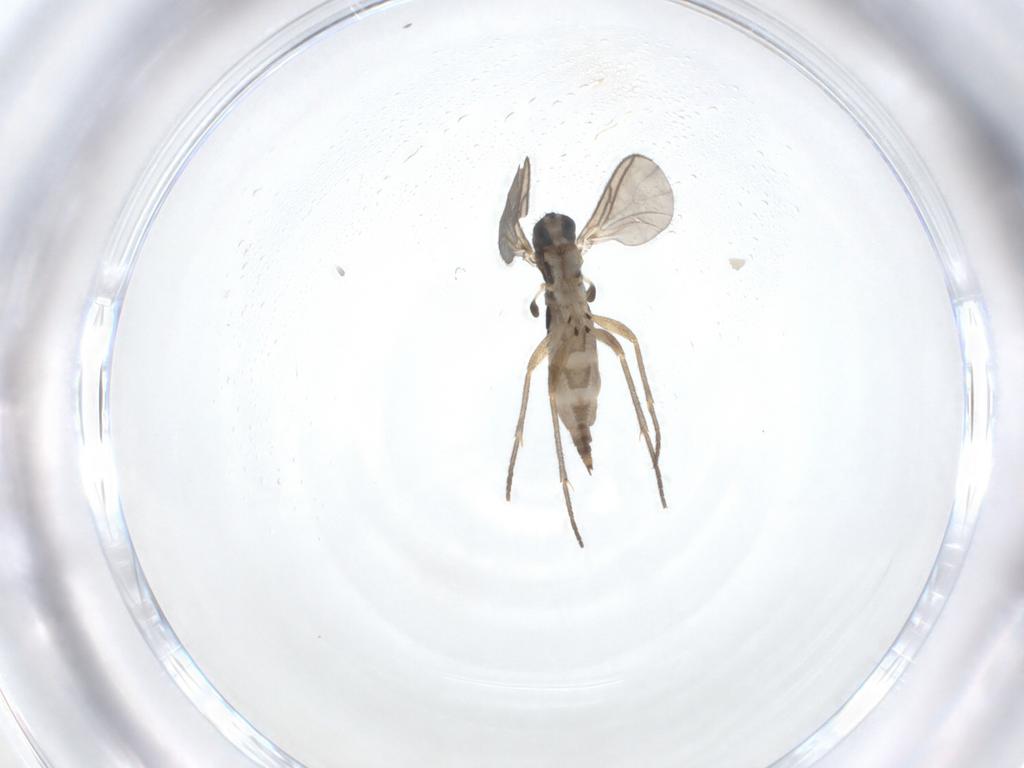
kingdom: Animalia
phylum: Arthropoda
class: Insecta
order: Diptera
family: Sciaridae
